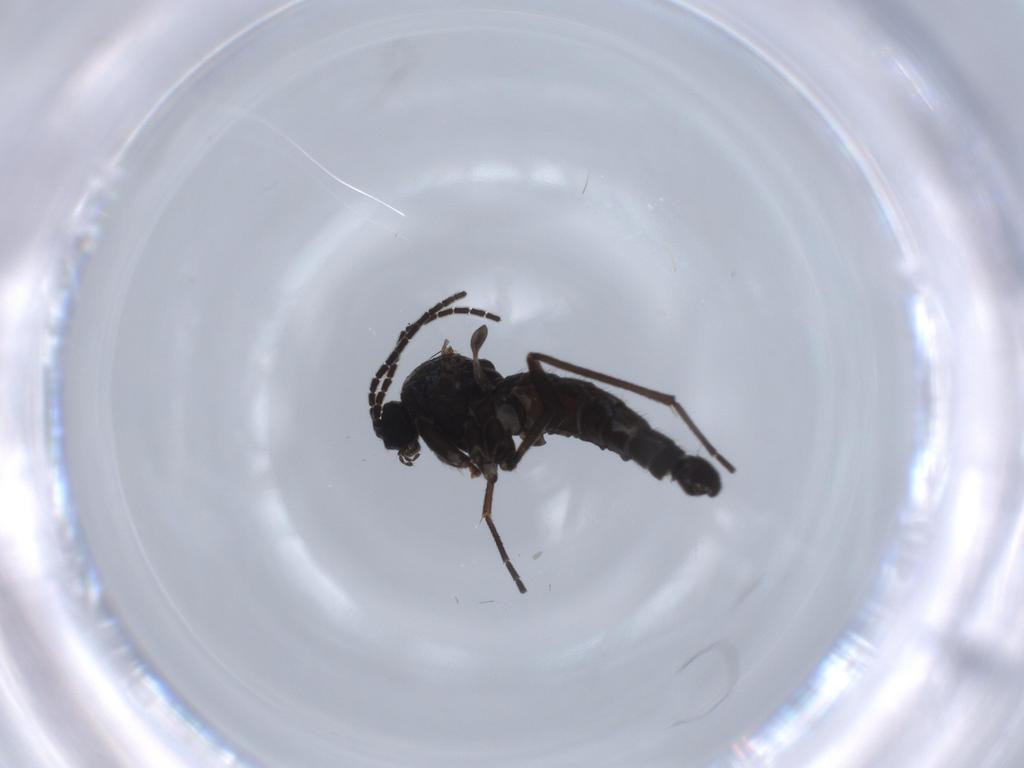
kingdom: Animalia
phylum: Arthropoda
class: Insecta
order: Diptera
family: Sciaridae
